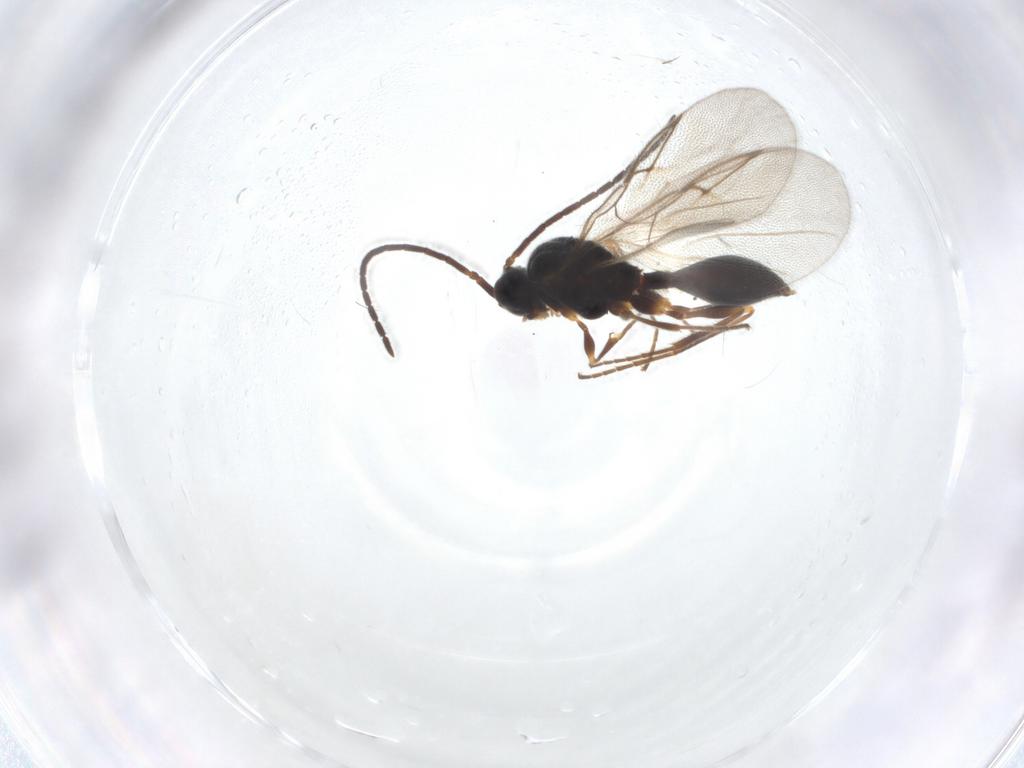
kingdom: Animalia
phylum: Arthropoda
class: Insecta
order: Hymenoptera
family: Diapriidae
